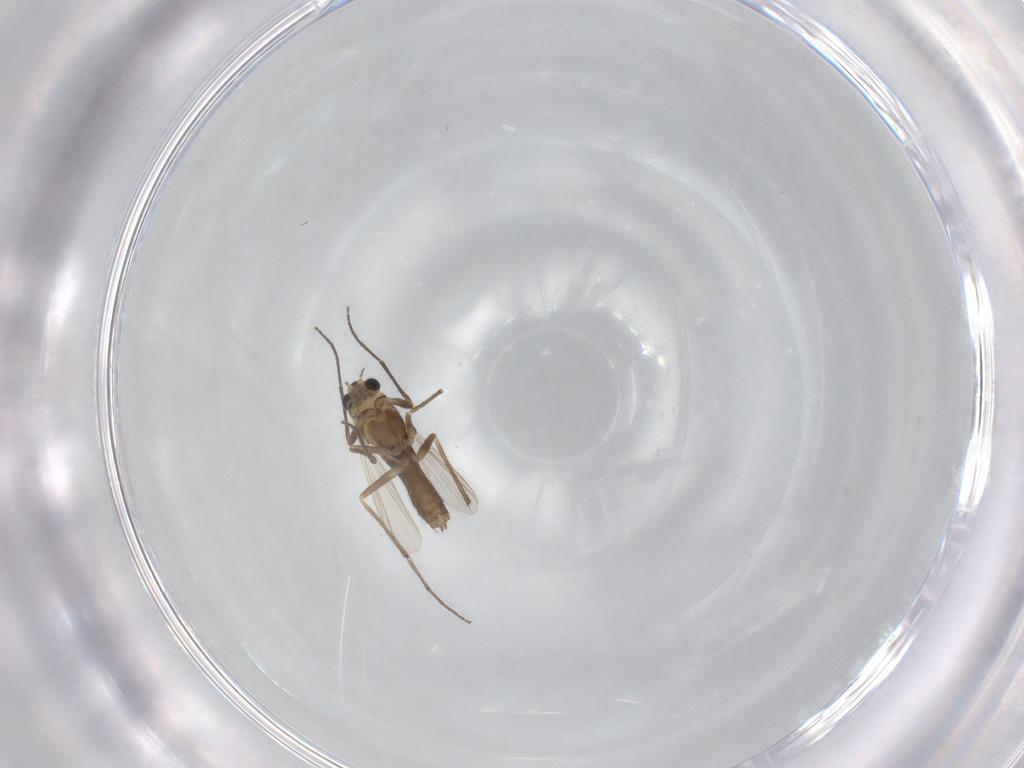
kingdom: Animalia
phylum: Arthropoda
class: Insecta
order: Diptera
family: Chironomidae
